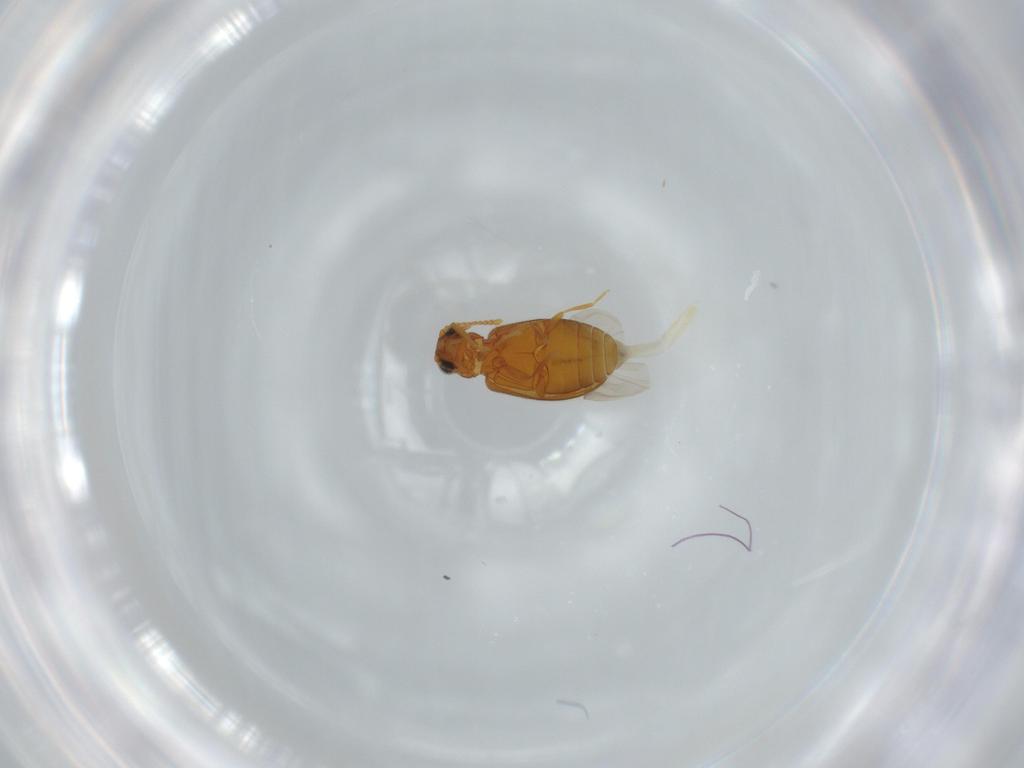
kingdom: Animalia
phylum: Arthropoda
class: Insecta
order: Coleoptera
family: Aderidae
